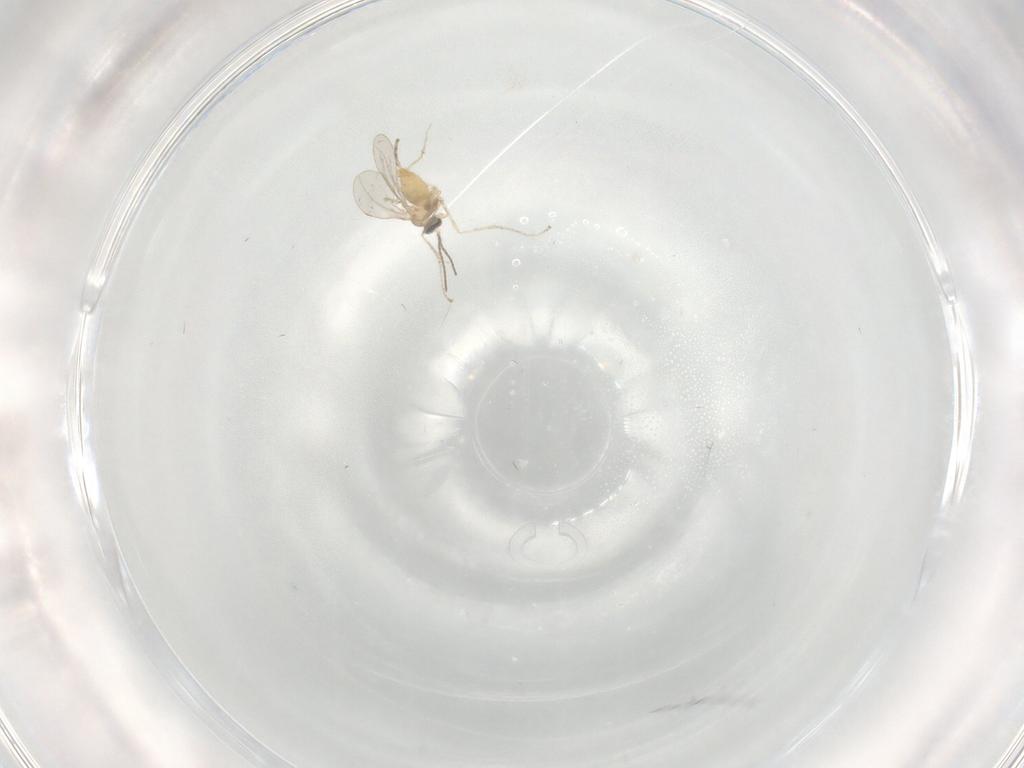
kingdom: Animalia
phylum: Arthropoda
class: Insecta
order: Diptera
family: Cecidomyiidae
